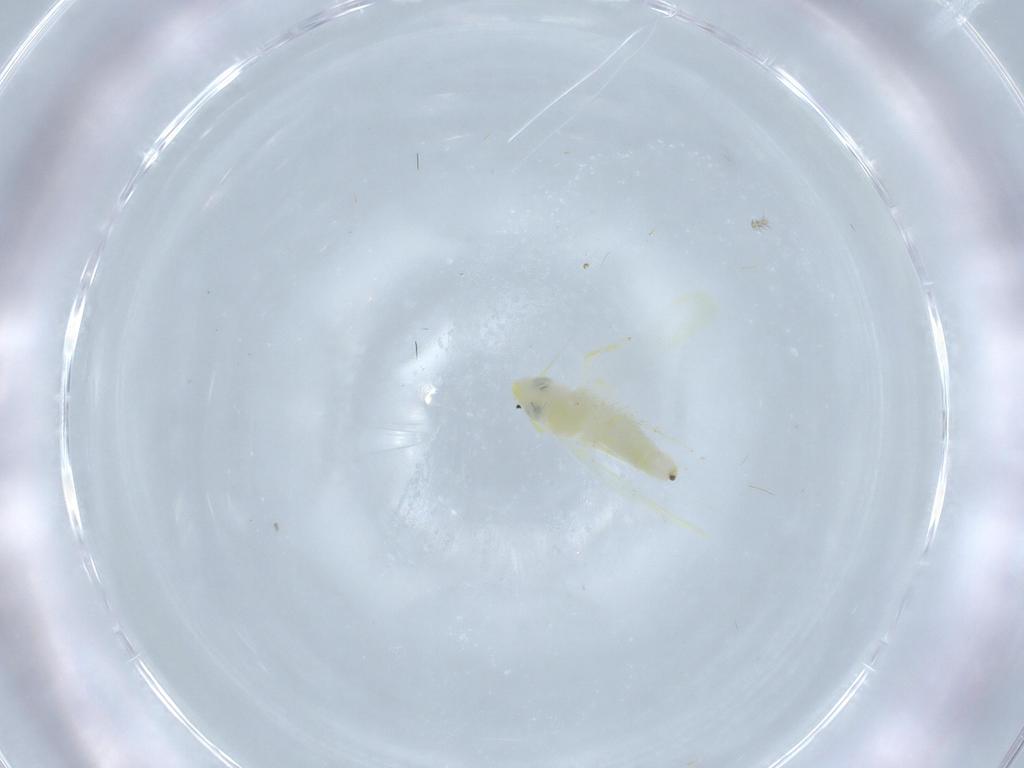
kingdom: Animalia
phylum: Arthropoda
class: Insecta
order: Hemiptera
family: Cicadellidae
